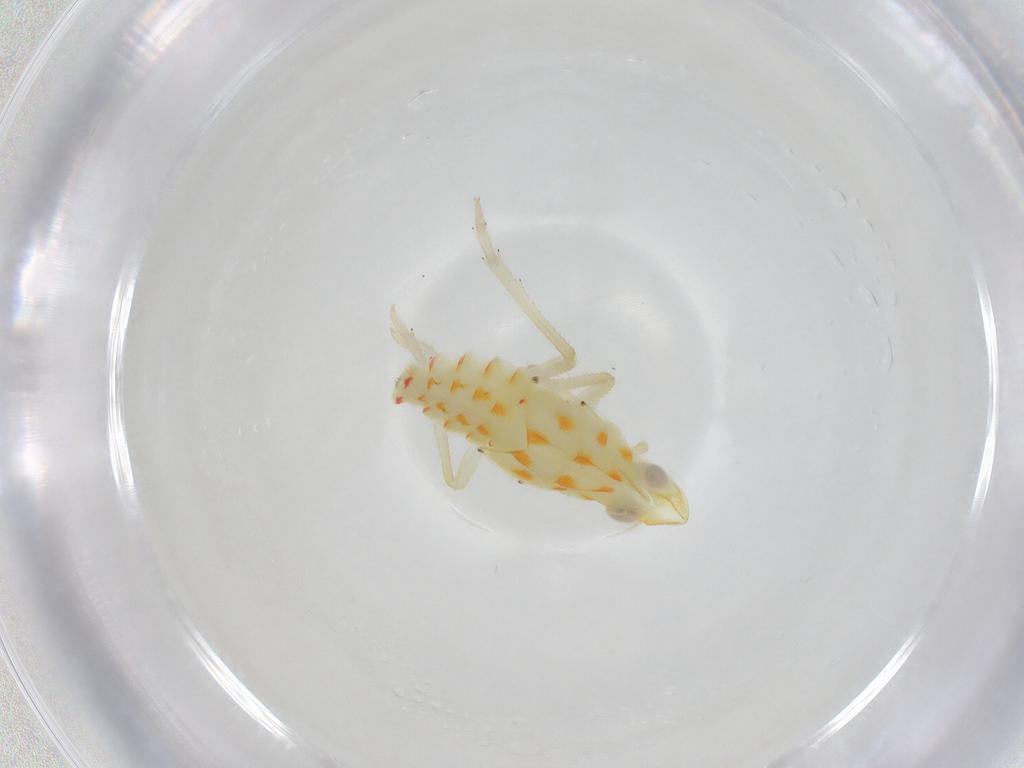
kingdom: Animalia
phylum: Arthropoda
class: Insecta
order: Hemiptera
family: Tropiduchidae
